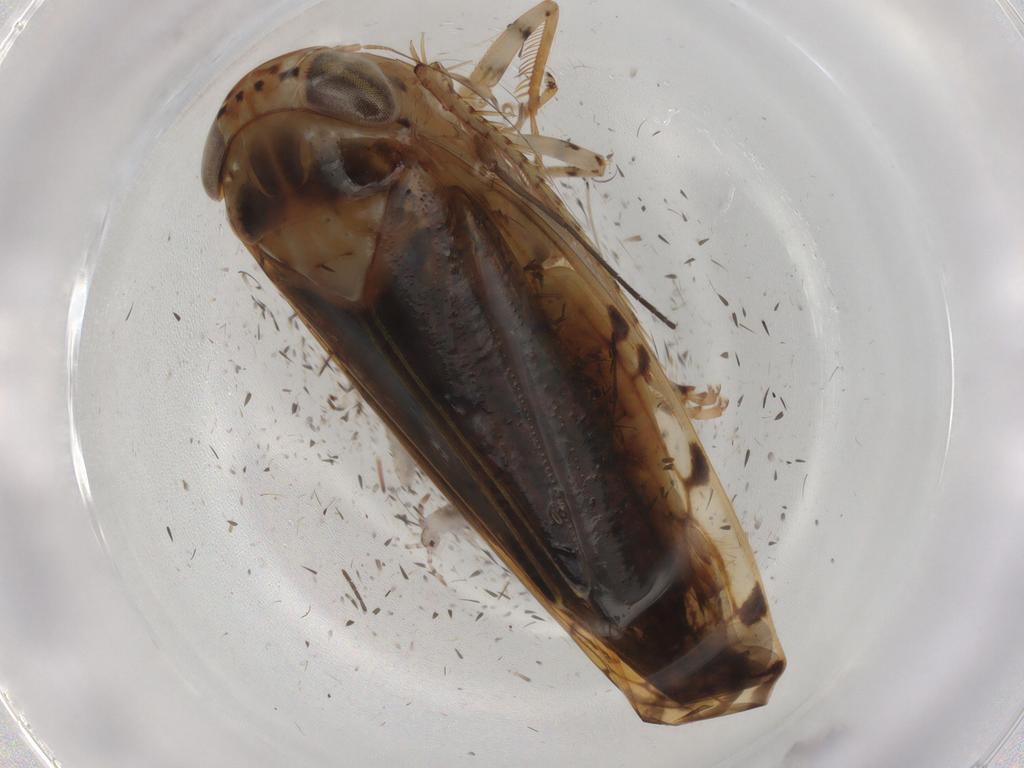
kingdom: Animalia
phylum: Arthropoda
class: Insecta
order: Hemiptera
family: Cicadellidae
